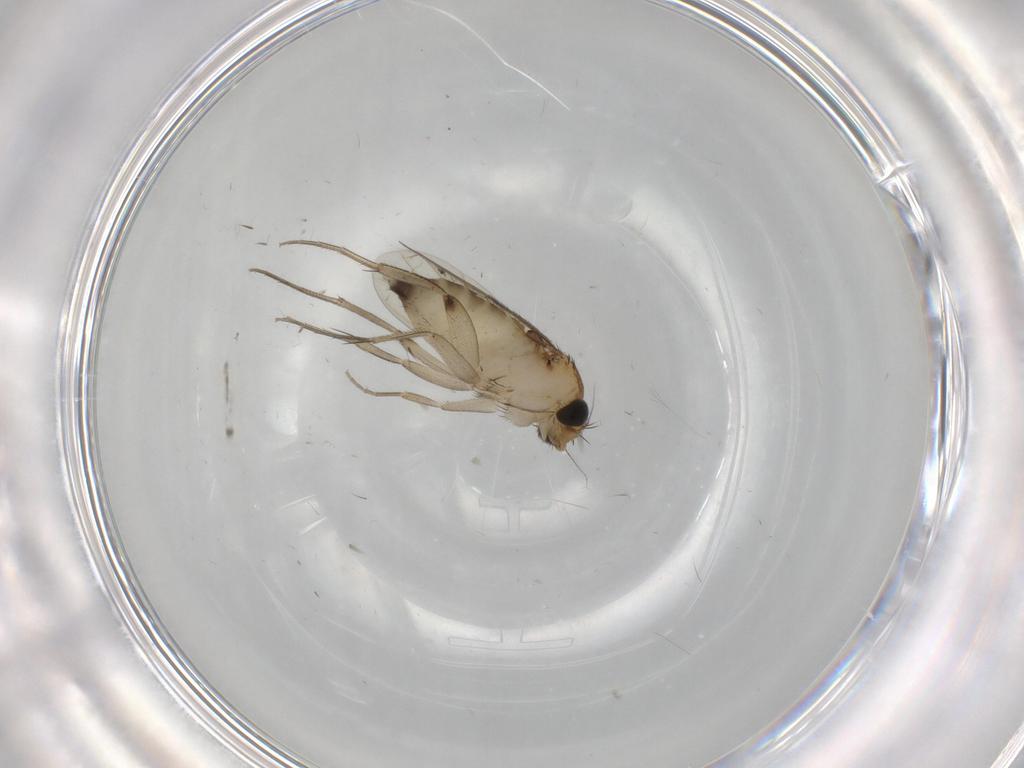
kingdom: Animalia
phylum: Arthropoda
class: Insecta
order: Diptera
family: Phoridae
